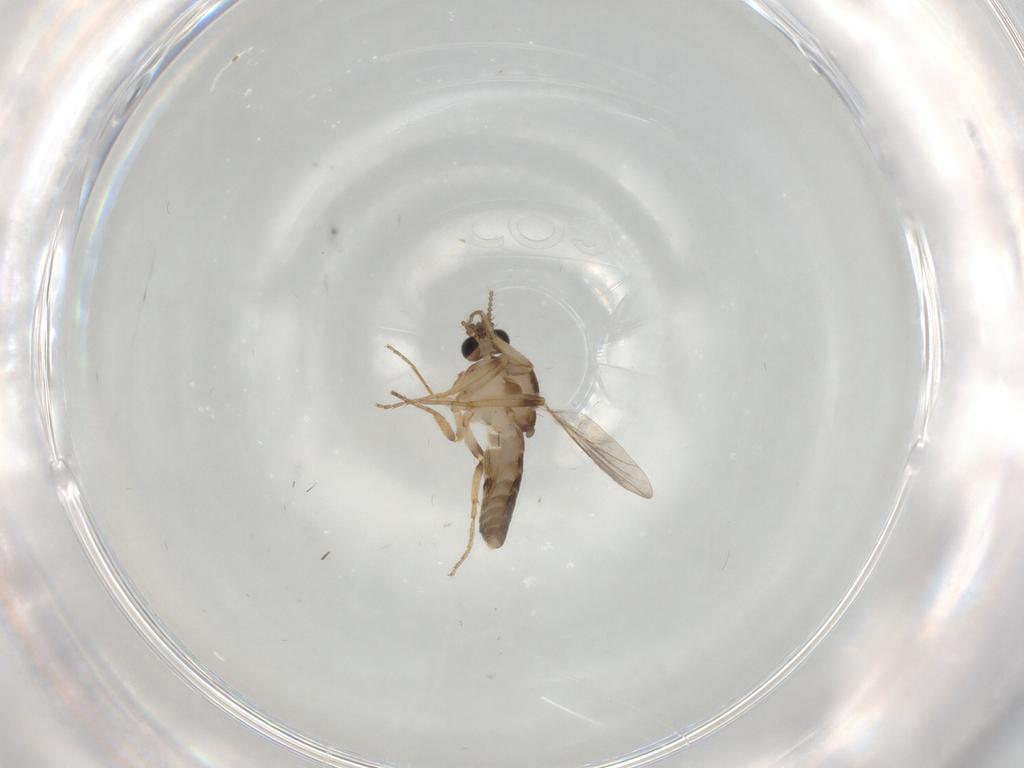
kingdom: Animalia
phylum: Arthropoda
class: Insecta
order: Diptera
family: Ceratopogonidae
